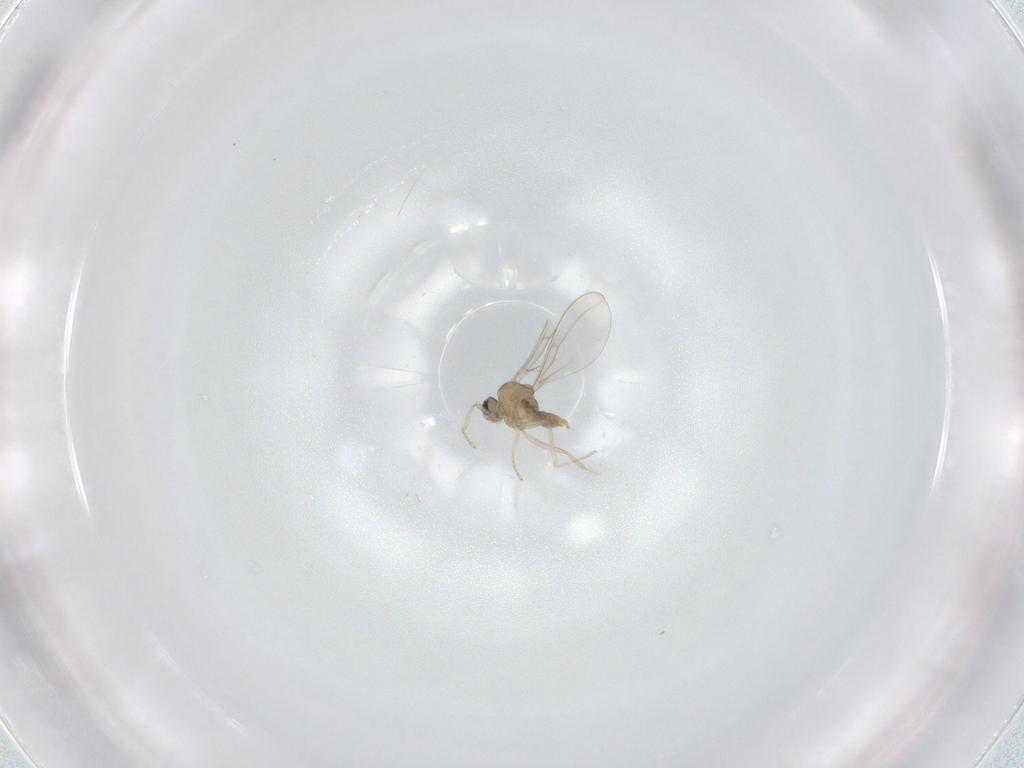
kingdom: Animalia
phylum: Arthropoda
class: Insecta
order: Diptera
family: Cecidomyiidae
